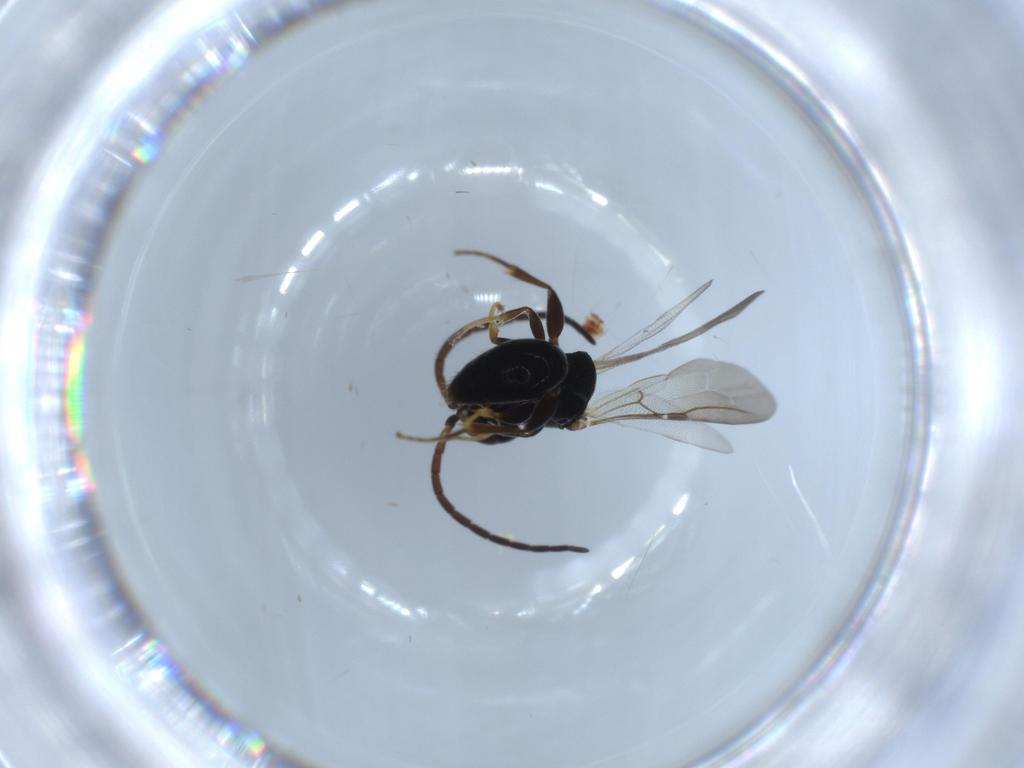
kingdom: Animalia
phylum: Arthropoda
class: Insecta
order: Hymenoptera
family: Bethylidae
